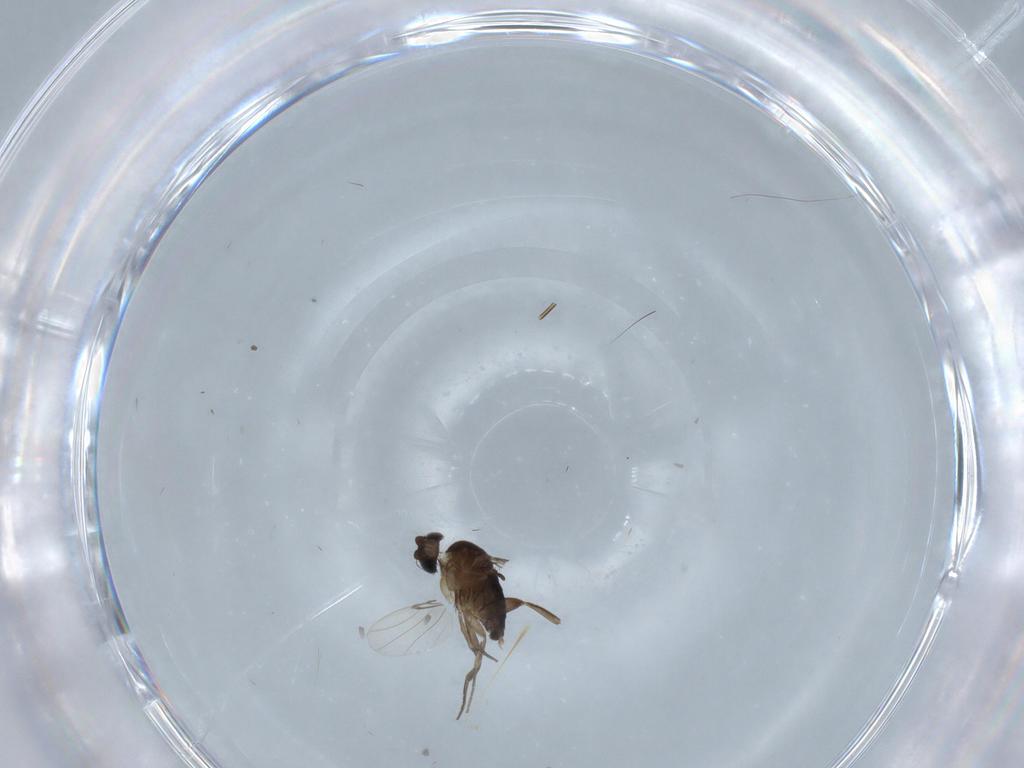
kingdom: Animalia
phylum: Arthropoda
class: Insecta
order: Diptera
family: Phoridae
